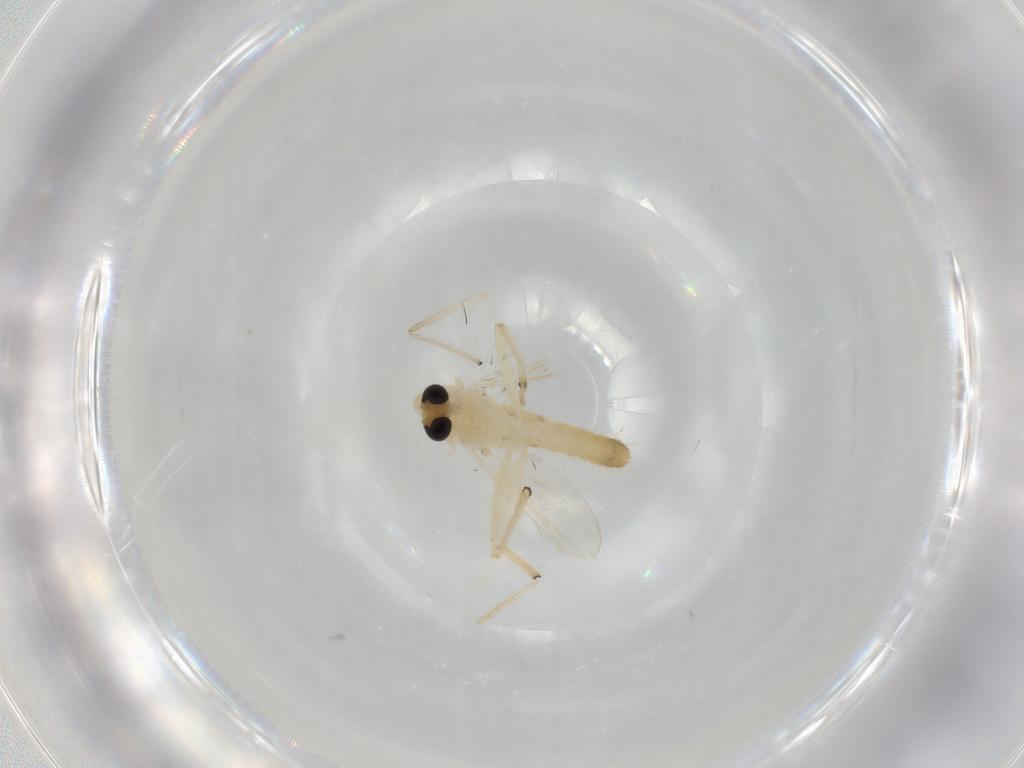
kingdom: Animalia
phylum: Arthropoda
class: Insecta
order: Diptera
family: Chironomidae
